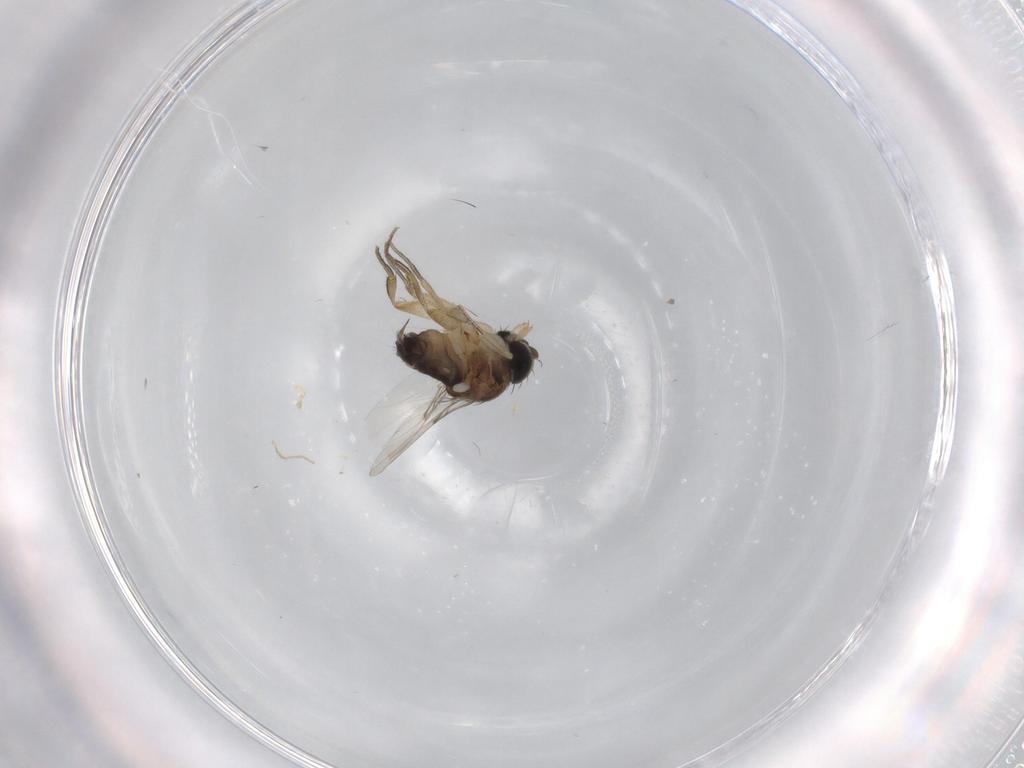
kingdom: Animalia
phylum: Arthropoda
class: Insecta
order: Diptera
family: Phoridae
